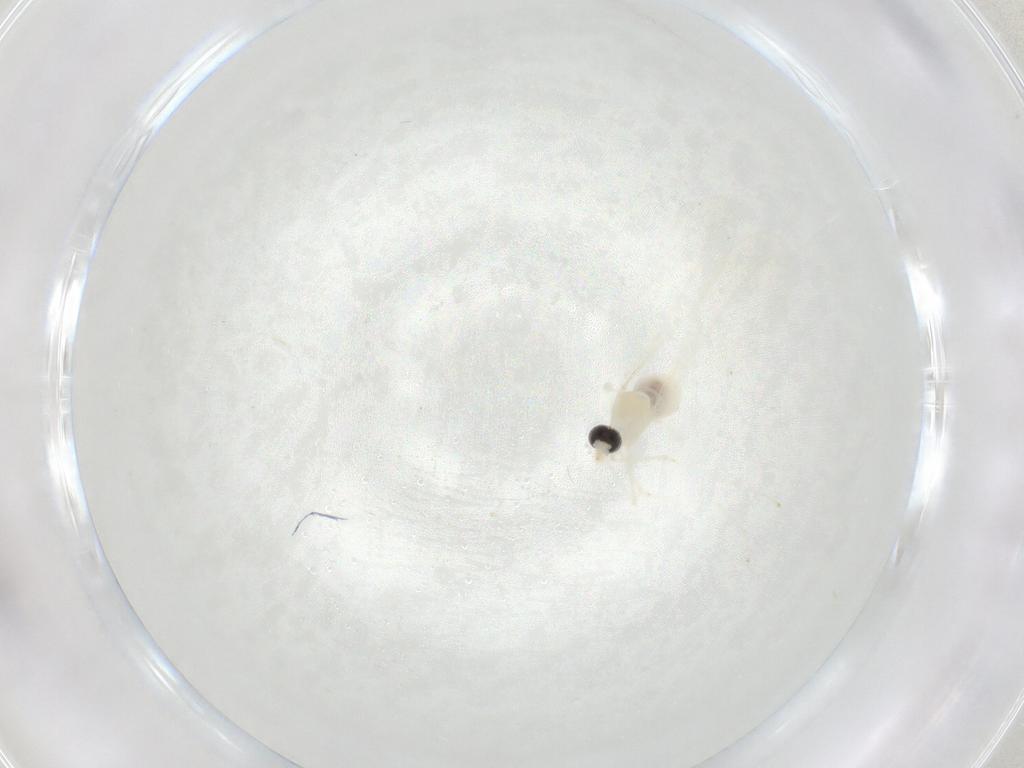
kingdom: Animalia
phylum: Arthropoda
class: Insecta
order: Diptera
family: Cecidomyiidae
